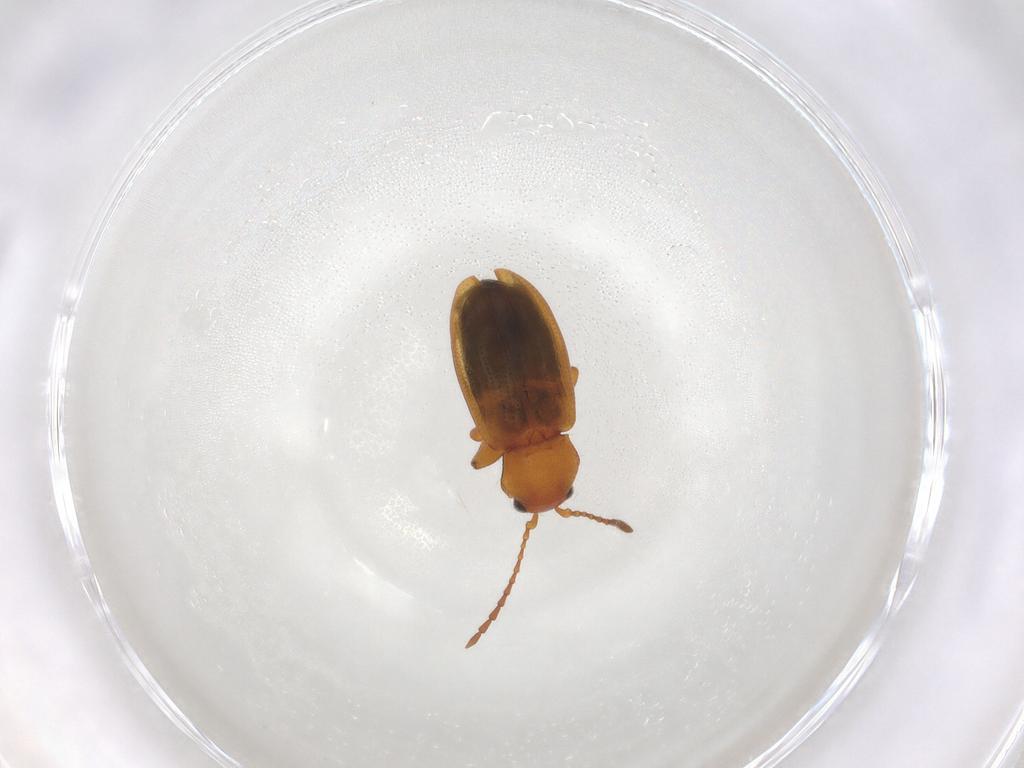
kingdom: Animalia
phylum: Arthropoda
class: Insecta
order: Coleoptera
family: Chrysomelidae
